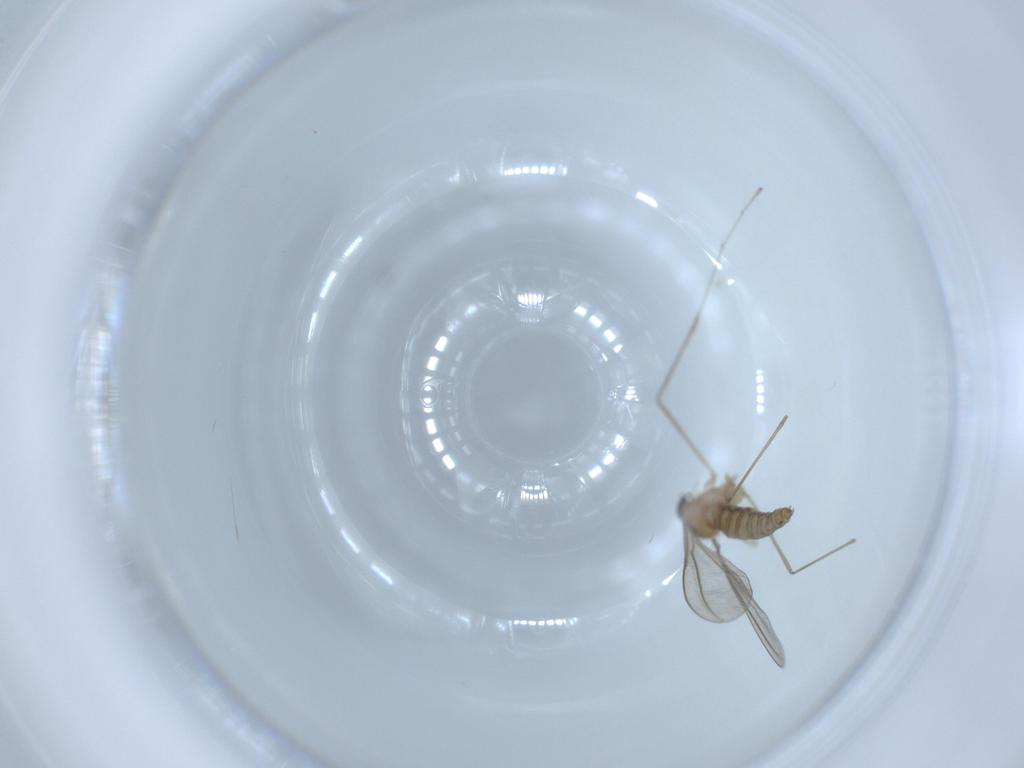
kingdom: Animalia
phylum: Arthropoda
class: Insecta
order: Diptera
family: Cecidomyiidae
